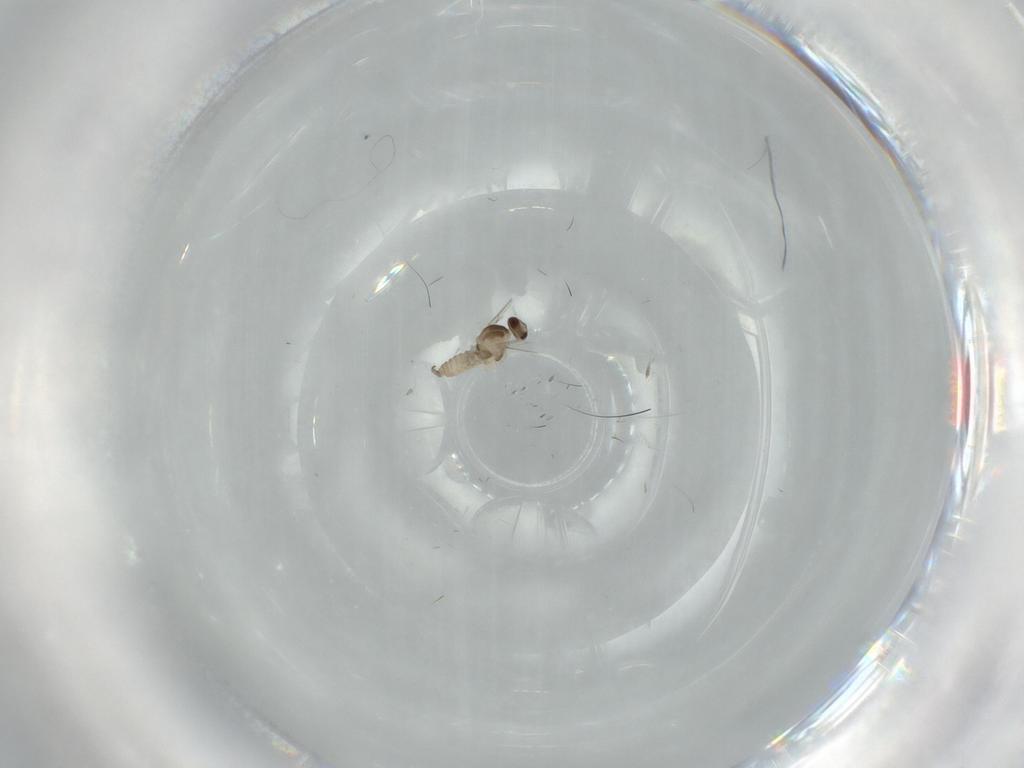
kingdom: Animalia
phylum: Arthropoda
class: Insecta
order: Diptera
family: Cecidomyiidae
